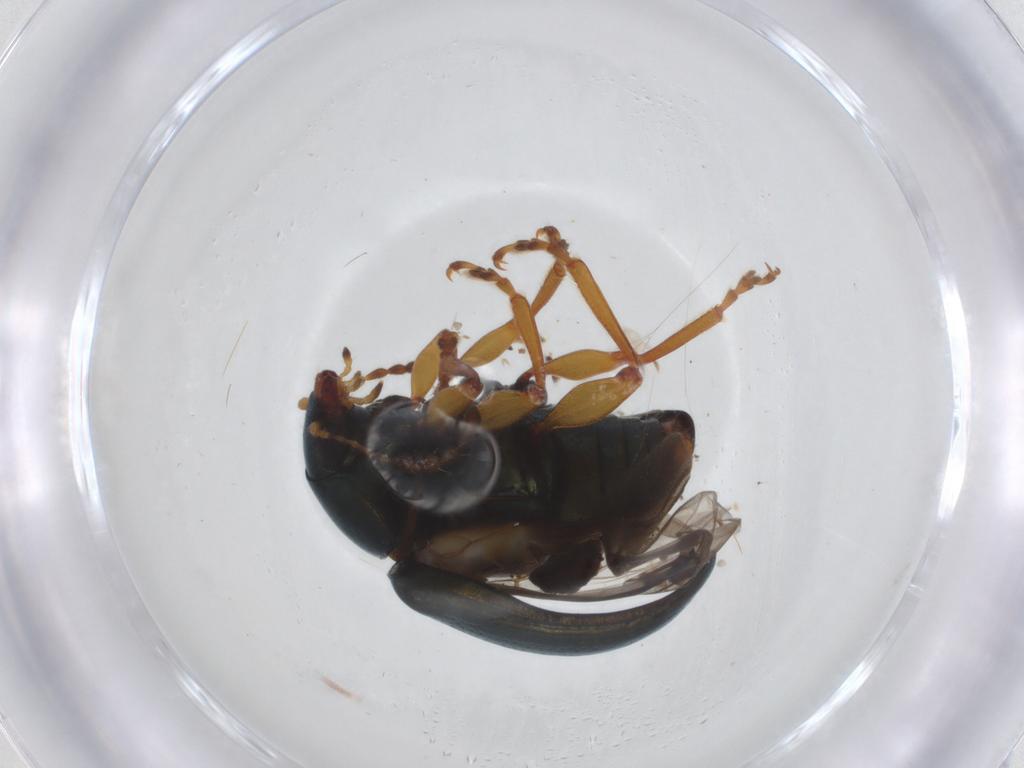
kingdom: Animalia
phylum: Arthropoda
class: Insecta
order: Coleoptera
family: Chrysomelidae
